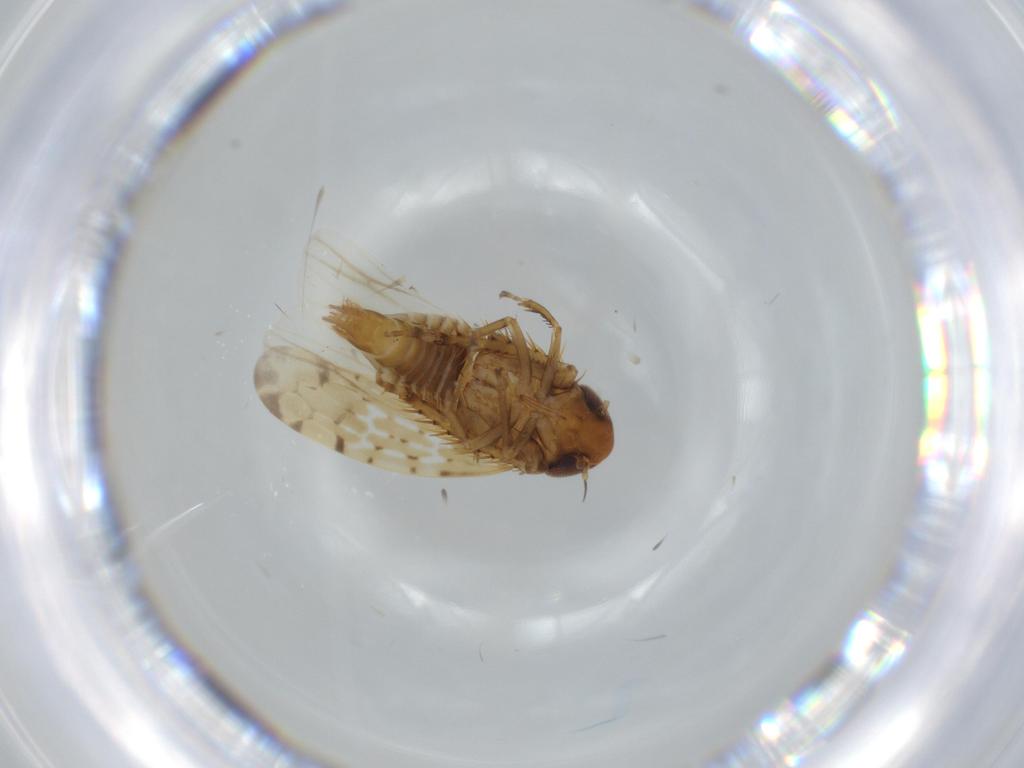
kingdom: Animalia
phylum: Arthropoda
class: Insecta
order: Hemiptera
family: Cicadellidae
